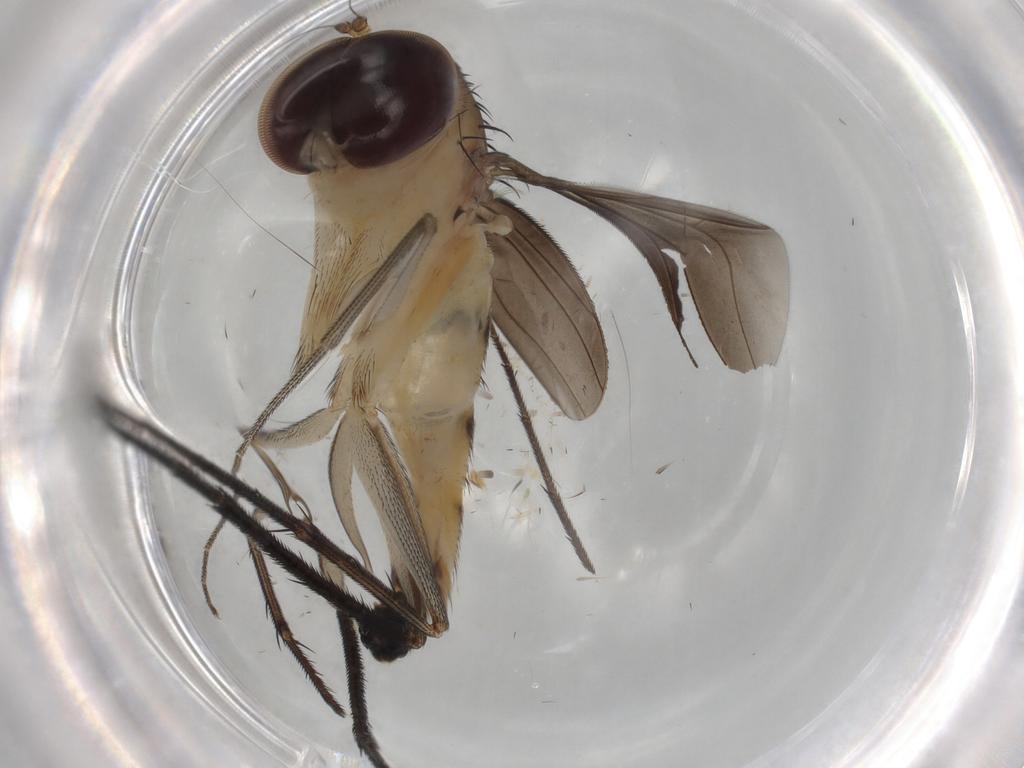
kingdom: Animalia
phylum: Arthropoda
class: Insecta
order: Diptera
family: Dolichopodidae
